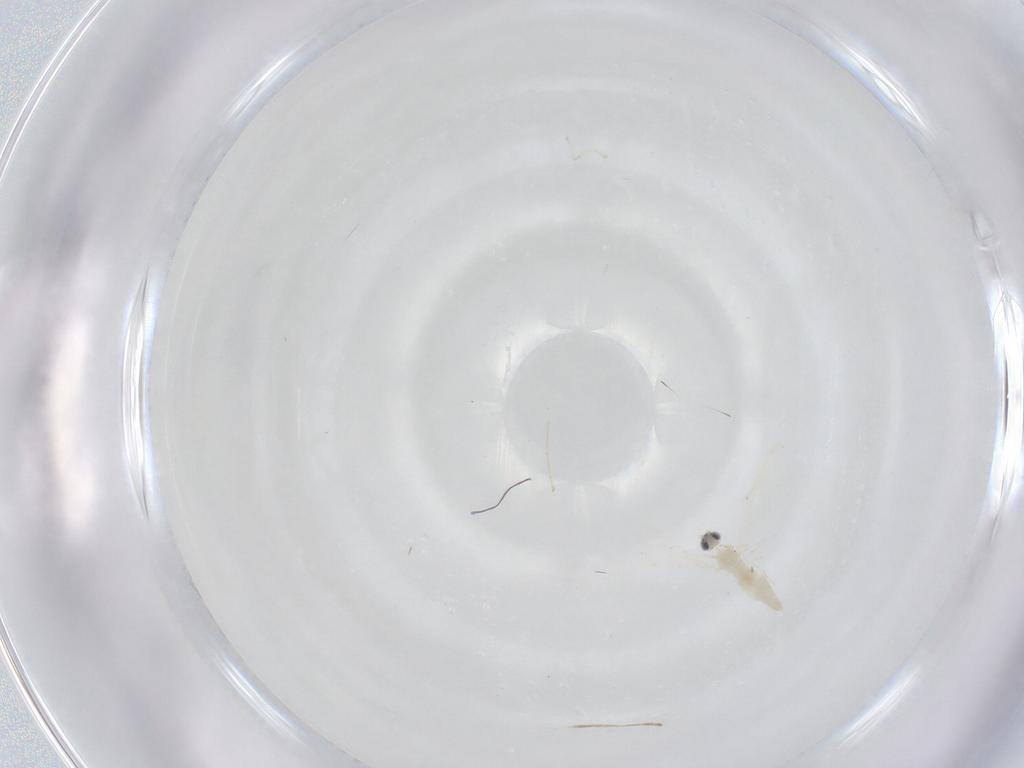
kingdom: Animalia
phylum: Arthropoda
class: Insecta
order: Diptera
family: Cecidomyiidae
